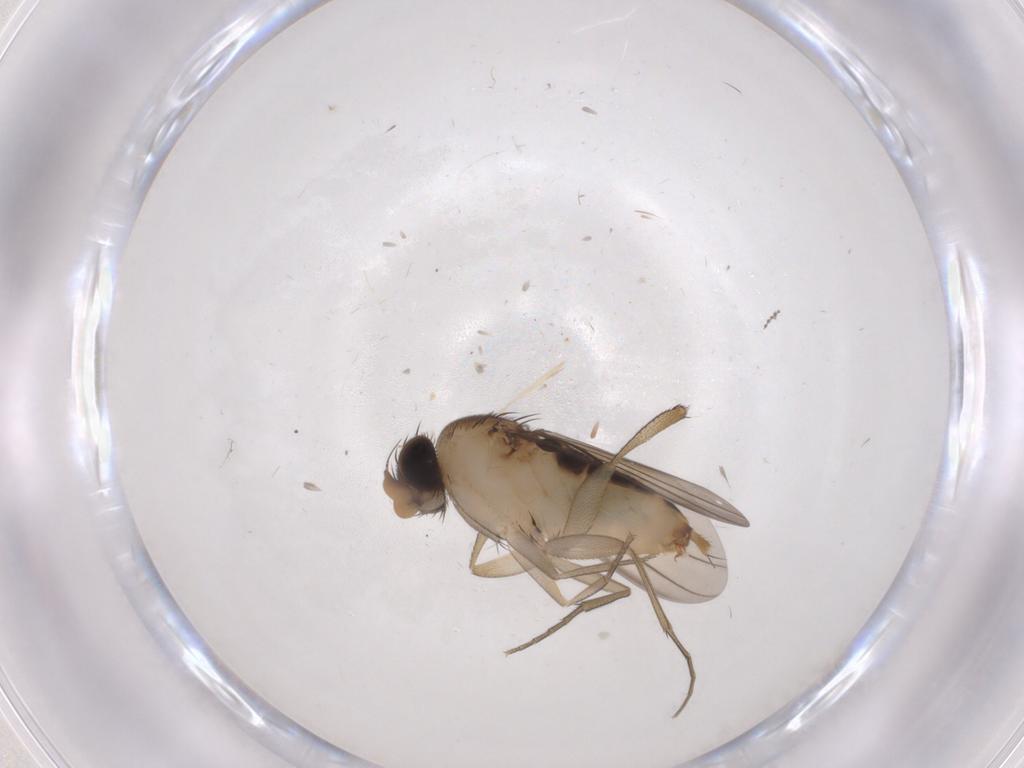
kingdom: Animalia
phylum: Arthropoda
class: Insecta
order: Diptera
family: Phoridae
